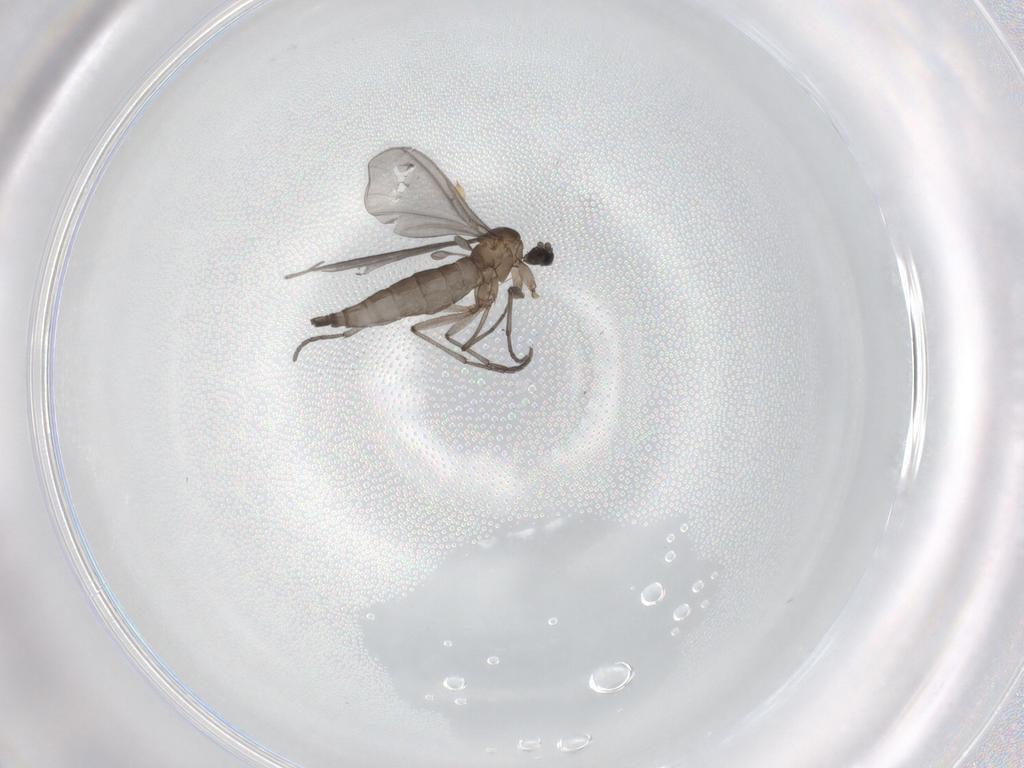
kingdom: Animalia
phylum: Arthropoda
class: Insecta
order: Diptera
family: Sciaridae
